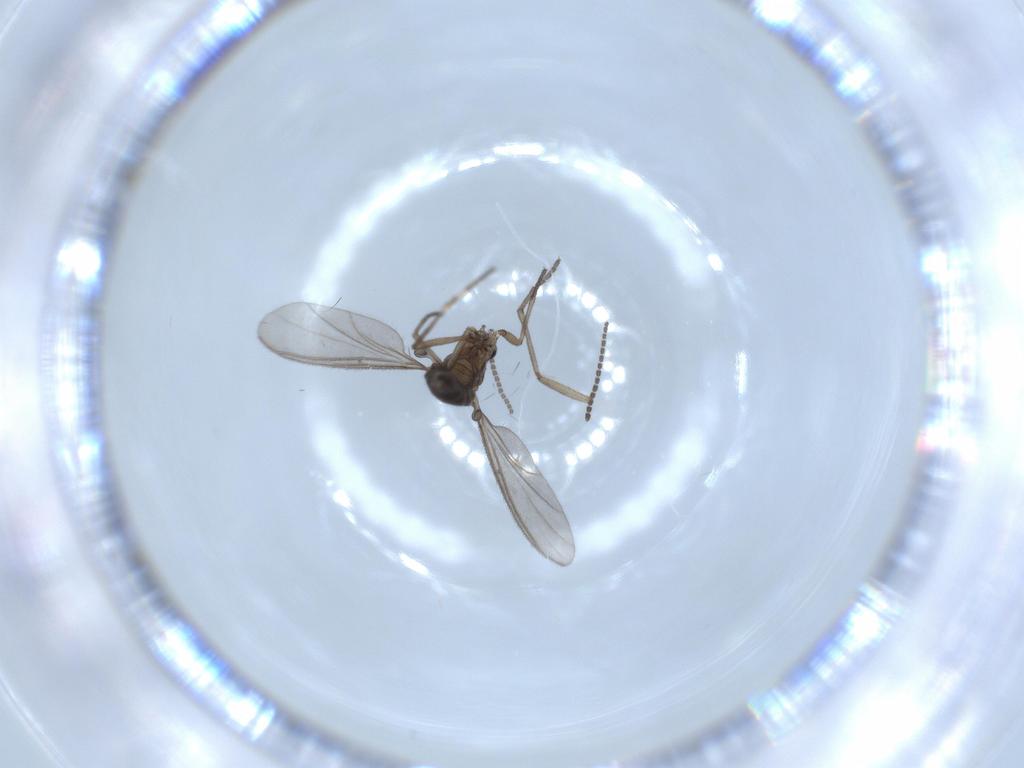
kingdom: Animalia
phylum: Arthropoda
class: Insecta
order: Diptera
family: Sciaridae
